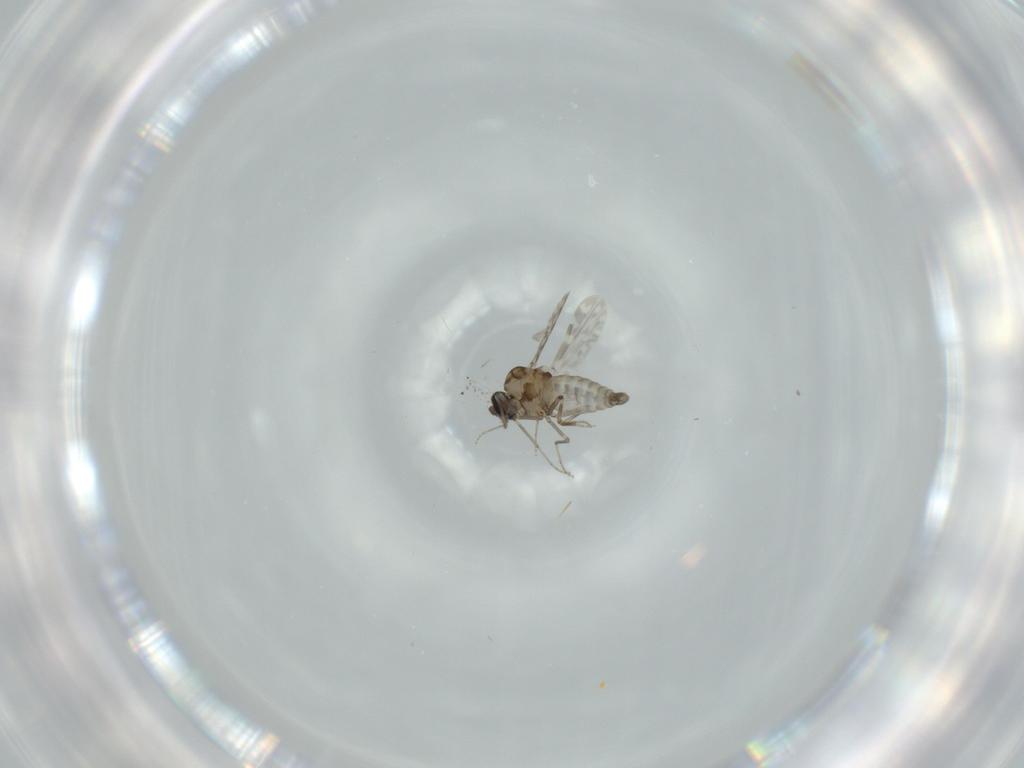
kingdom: Animalia
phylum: Arthropoda
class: Insecta
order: Diptera
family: Ceratopogonidae
